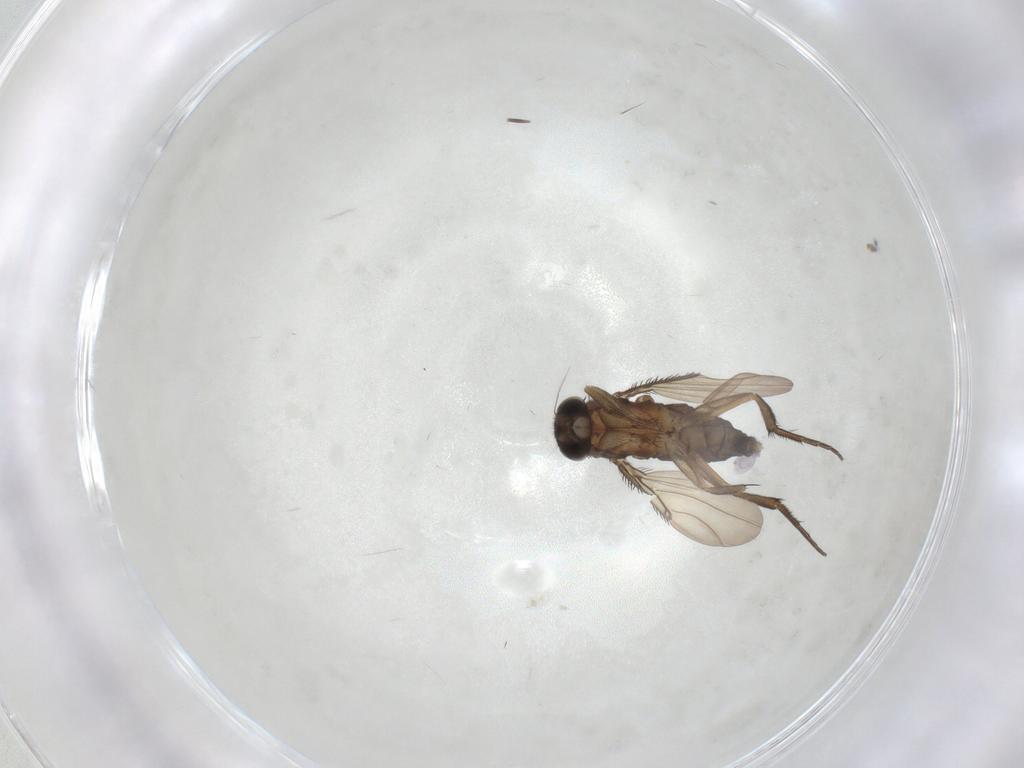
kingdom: Animalia
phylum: Arthropoda
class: Insecta
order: Diptera
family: Phoridae
